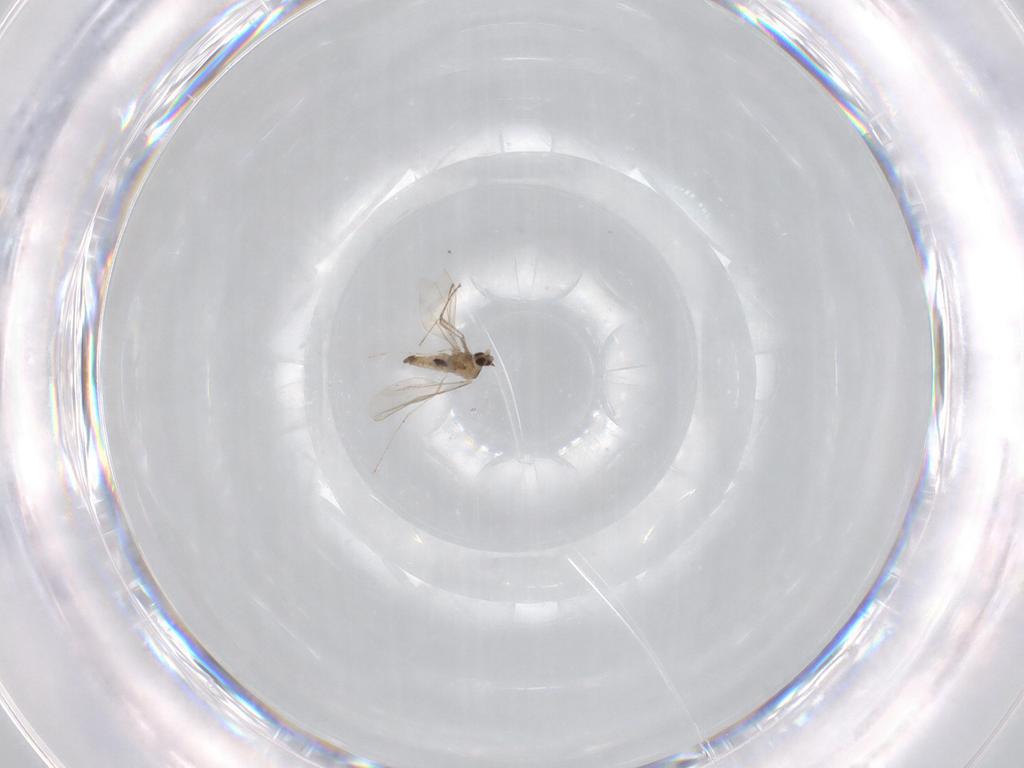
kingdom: Animalia
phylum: Arthropoda
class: Insecta
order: Diptera
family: Cecidomyiidae
